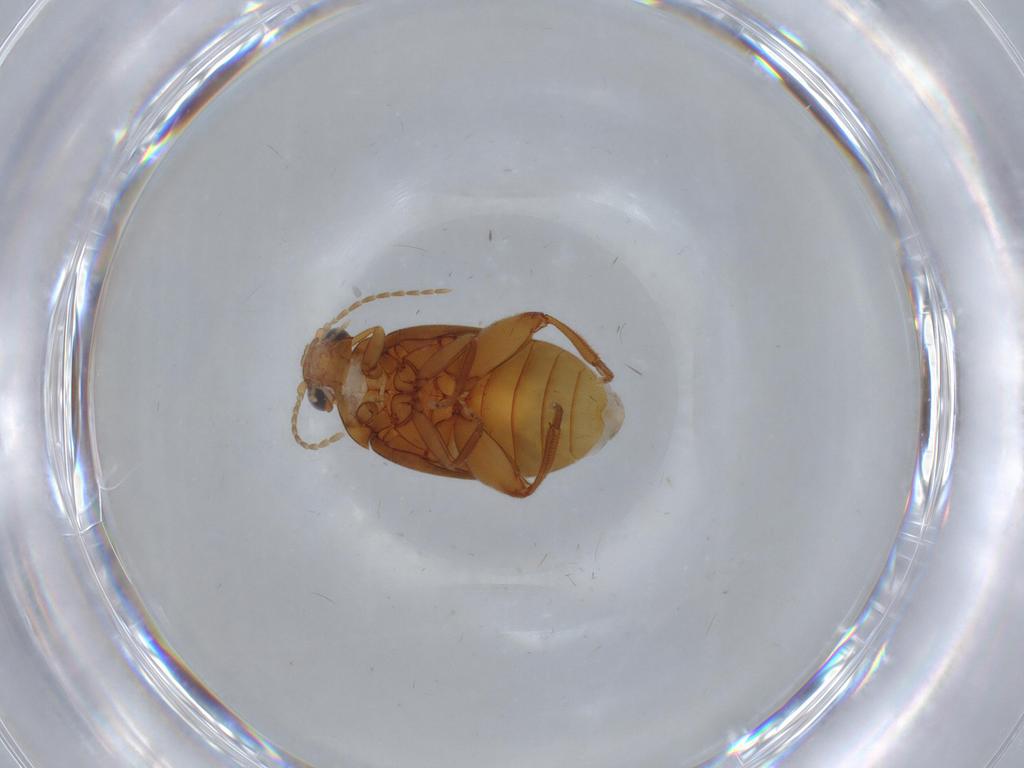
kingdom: Animalia
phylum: Arthropoda
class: Insecta
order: Coleoptera
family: Scirtidae
